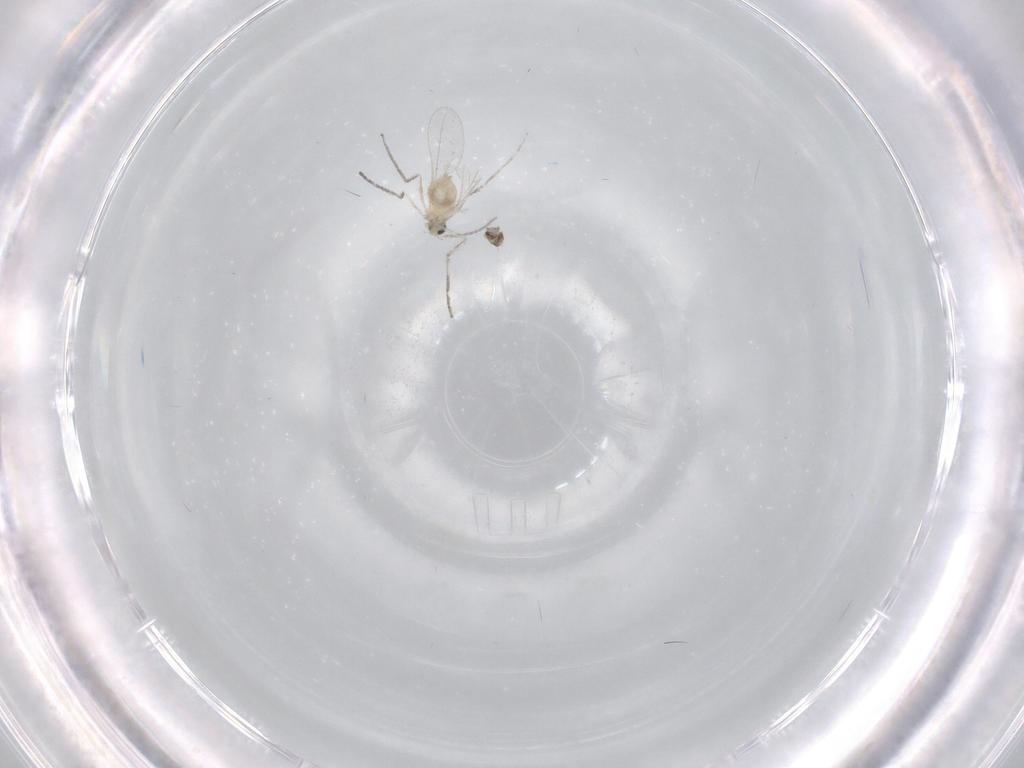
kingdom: Animalia
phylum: Arthropoda
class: Insecta
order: Diptera
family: Cecidomyiidae
